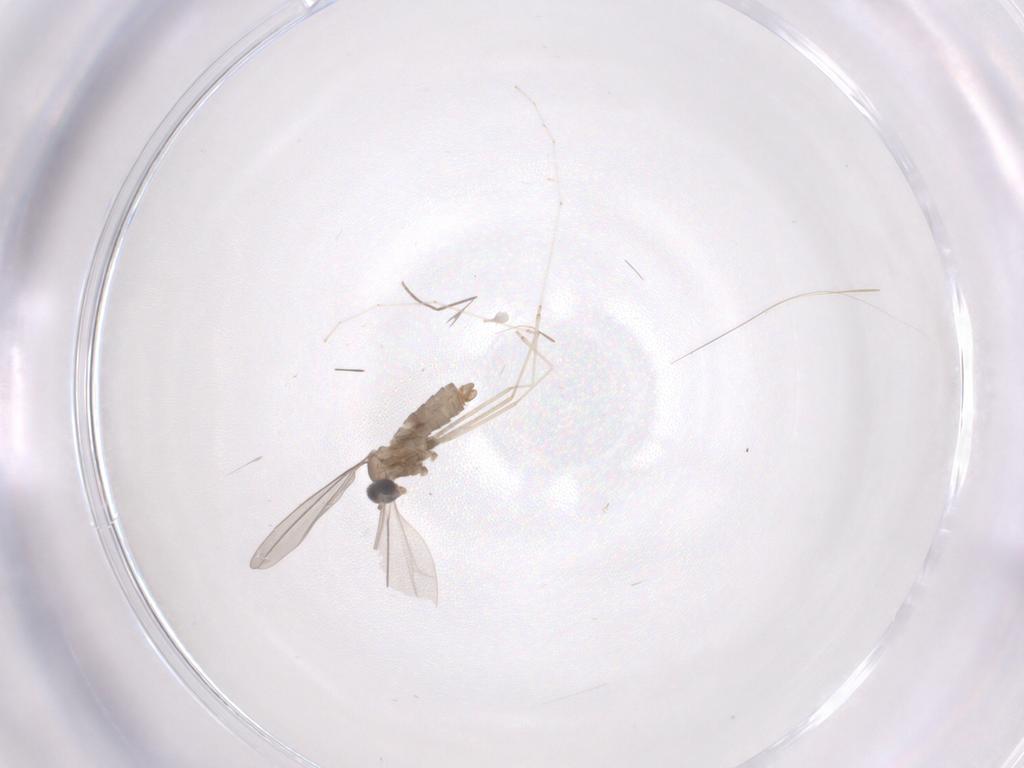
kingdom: Animalia
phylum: Arthropoda
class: Insecta
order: Diptera
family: Cecidomyiidae
